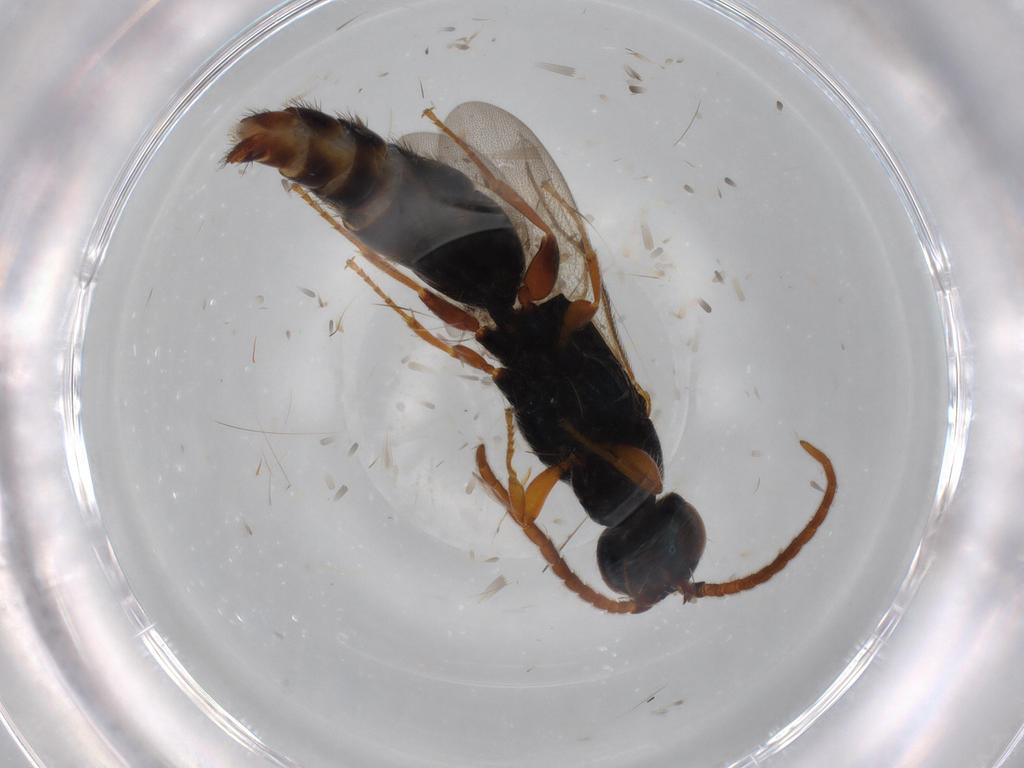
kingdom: Animalia
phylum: Arthropoda
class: Insecta
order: Hymenoptera
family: Bethylidae
